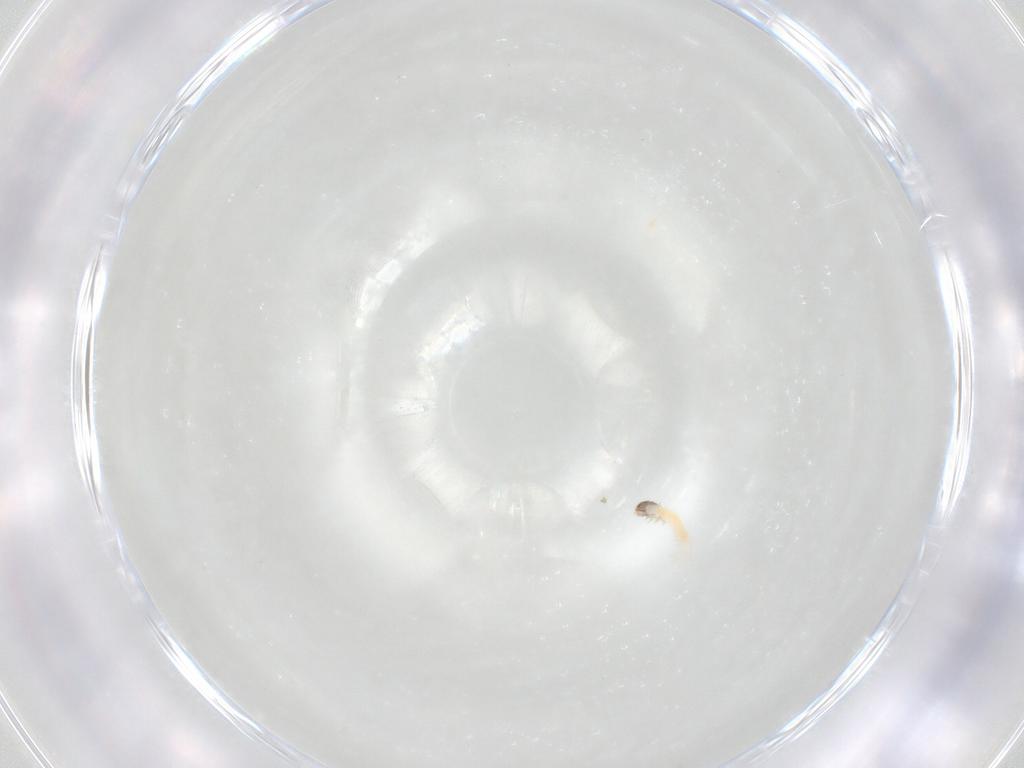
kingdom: Animalia
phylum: Arthropoda
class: Insecta
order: Lepidoptera
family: Lecithoceridae
